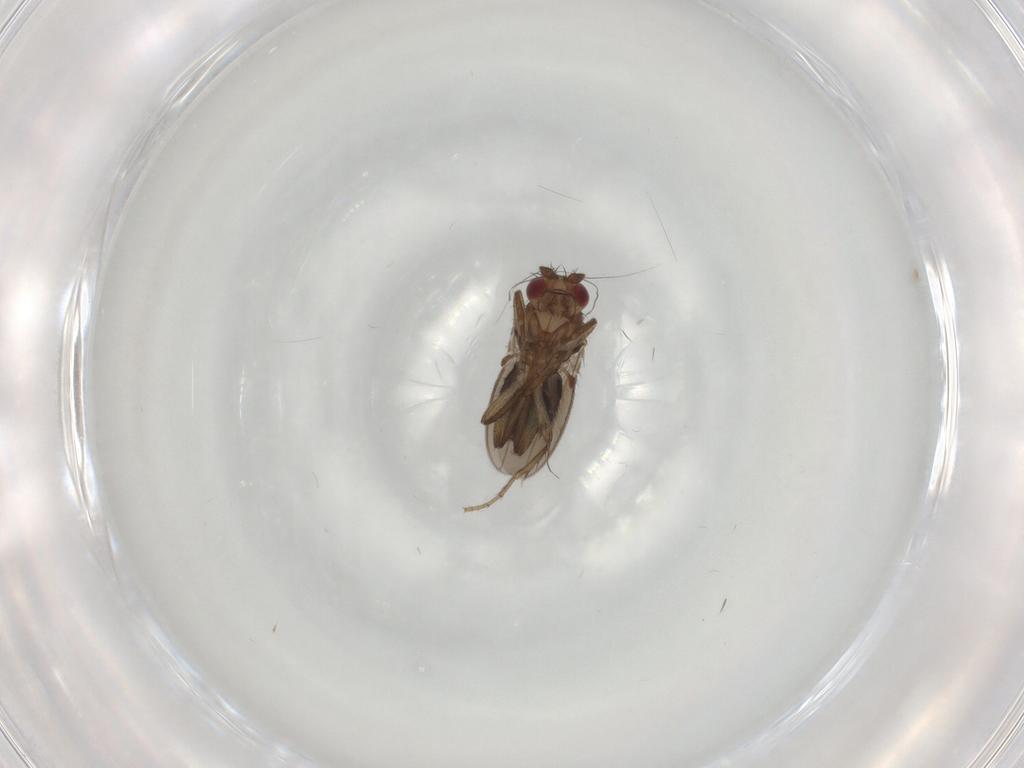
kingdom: Animalia
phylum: Arthropoda
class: Insecta
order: Diptera
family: Sphaeroceridae
